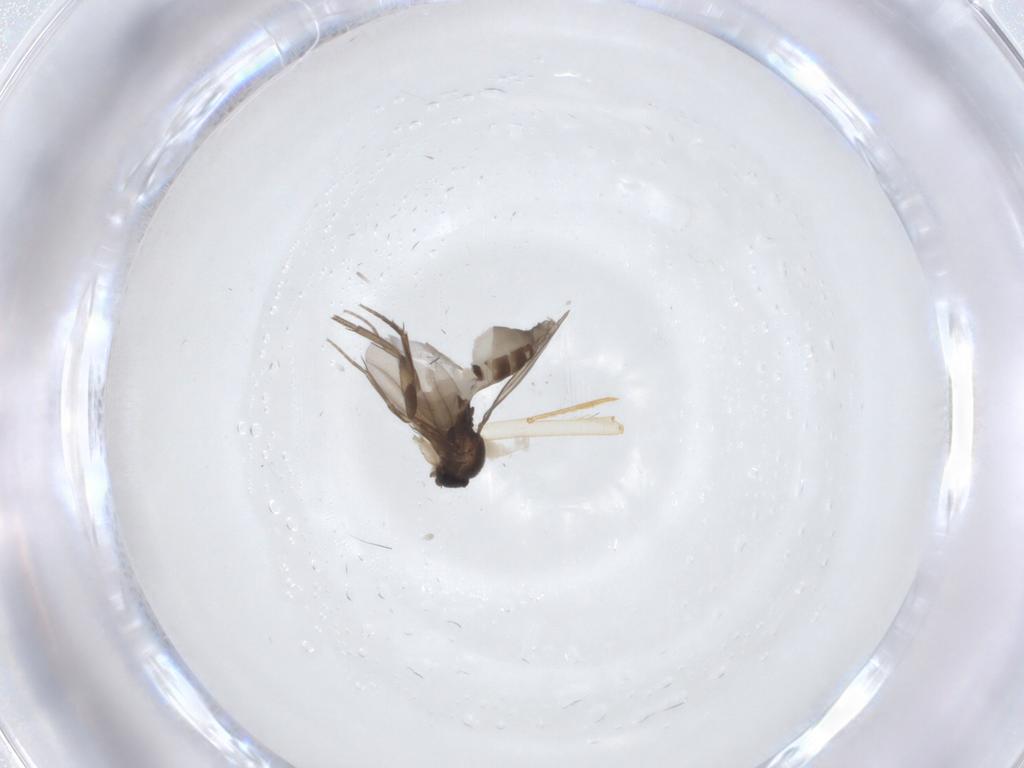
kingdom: Animalia
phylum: Arthropoda
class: Insecta
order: Diptera
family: Phoridae
